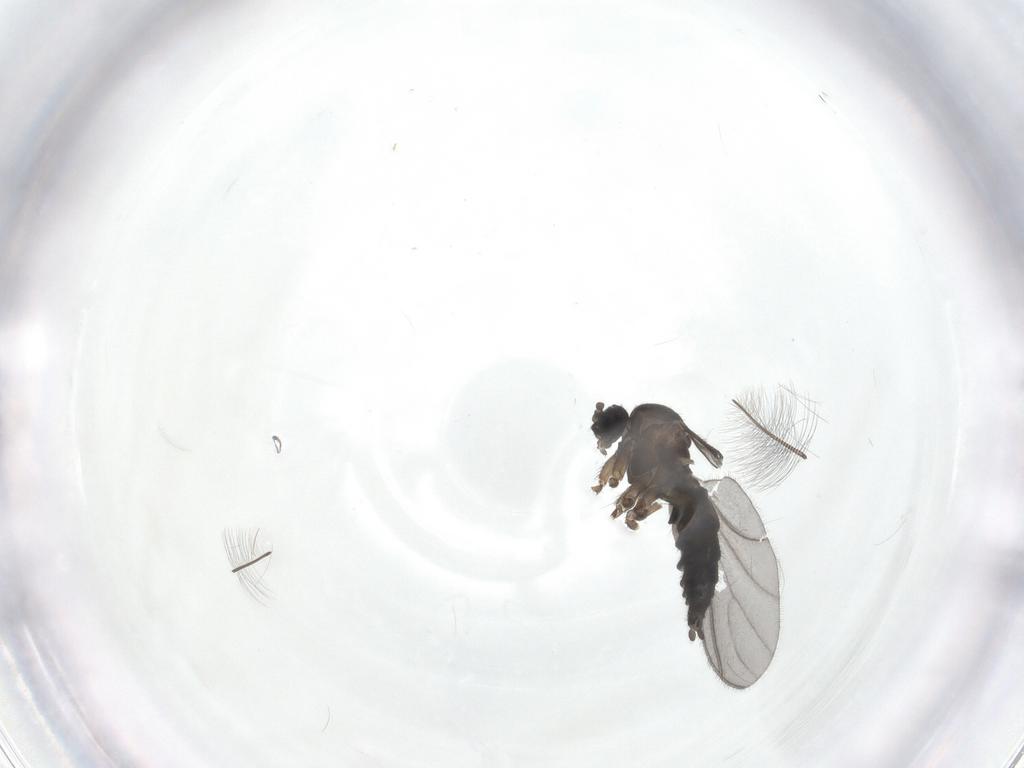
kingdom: Animalia
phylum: Arthropoda
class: Insecta
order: Diptera
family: Sciaridae
